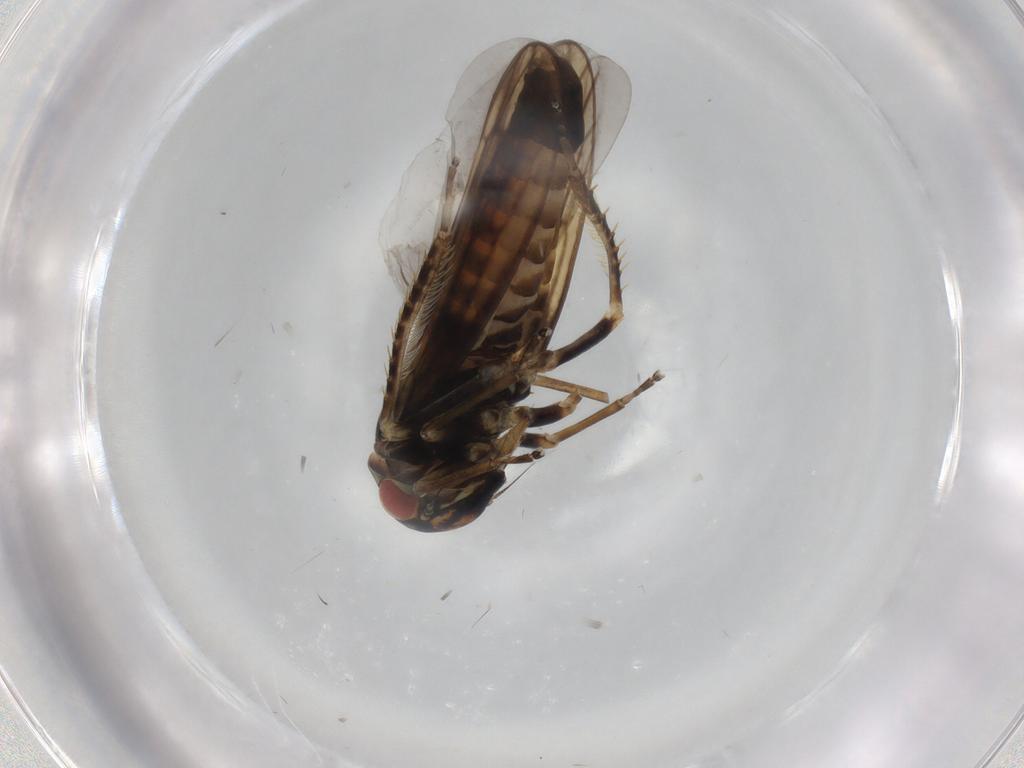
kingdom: Animalia
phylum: Arthropoda
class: Insecta
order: Hemiptera
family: Cicadellidae
